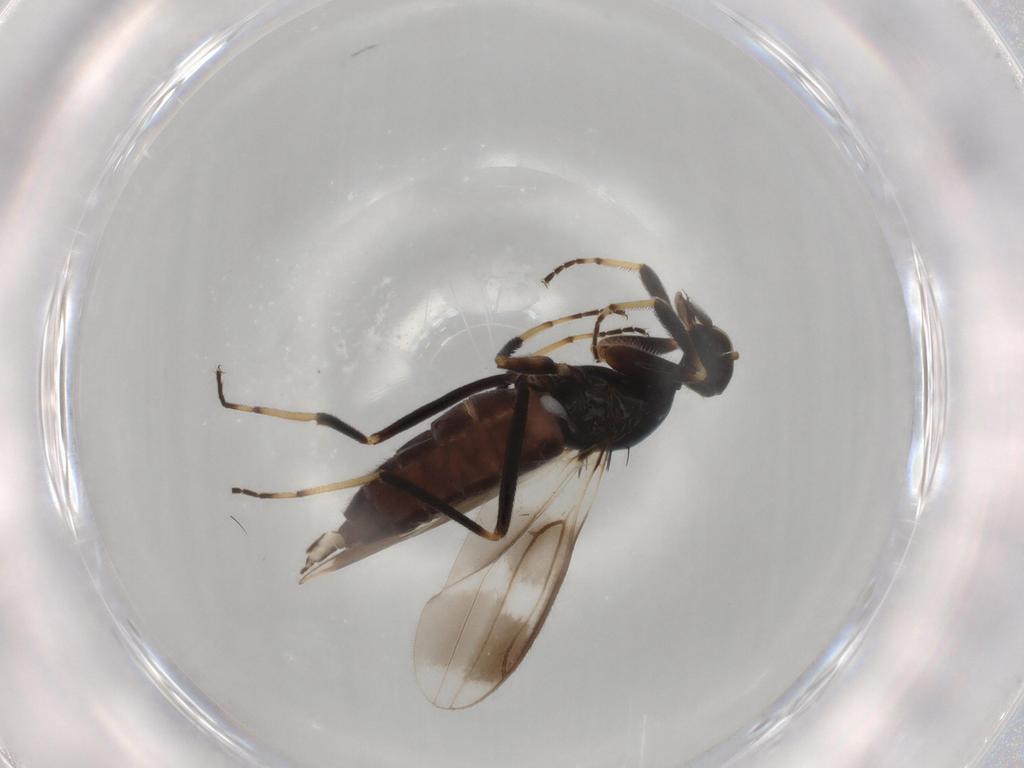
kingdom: Animalia
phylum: Arthropoda
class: Insecta
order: Diptera
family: Hybotidae
